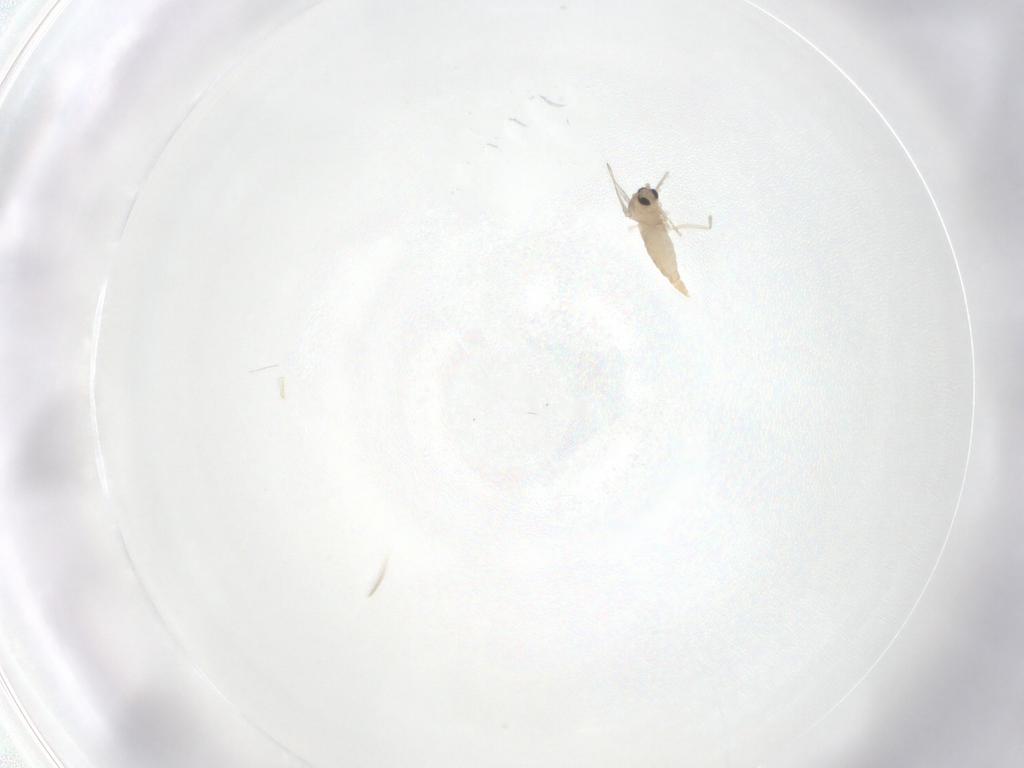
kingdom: Animalia
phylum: Arthropoda
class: Insecta
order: Diptera
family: Cecidomyiidae
